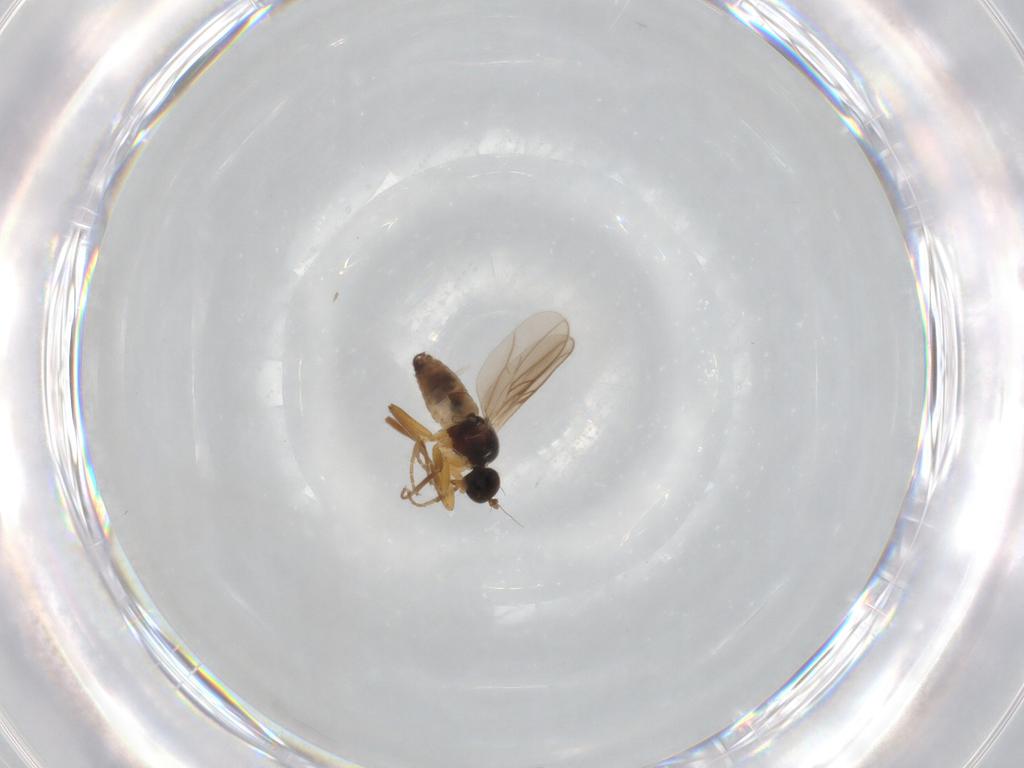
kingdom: Animalia
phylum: Arthropoda
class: Insecta
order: Diptera
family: Hybotidae
